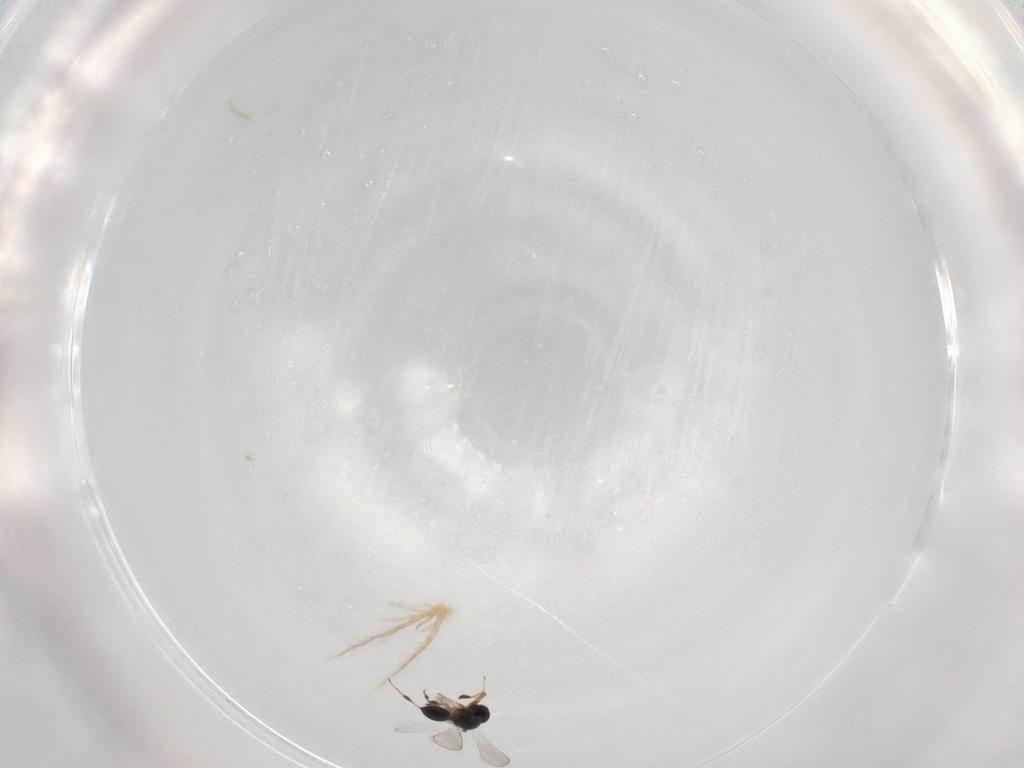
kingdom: Animalia
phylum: Arthropoda
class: Insecta
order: Hymenoptera
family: Platygastridae
